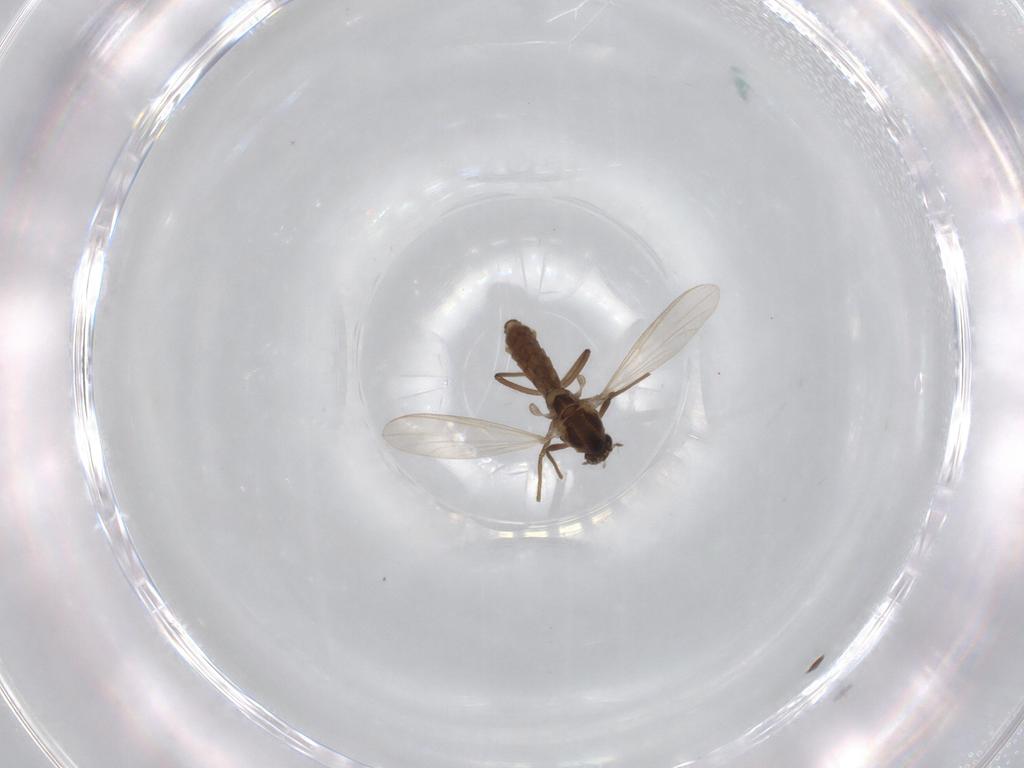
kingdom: Animalia
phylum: Arthropoda
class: Insecta
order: Diptera
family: Chironomidae
